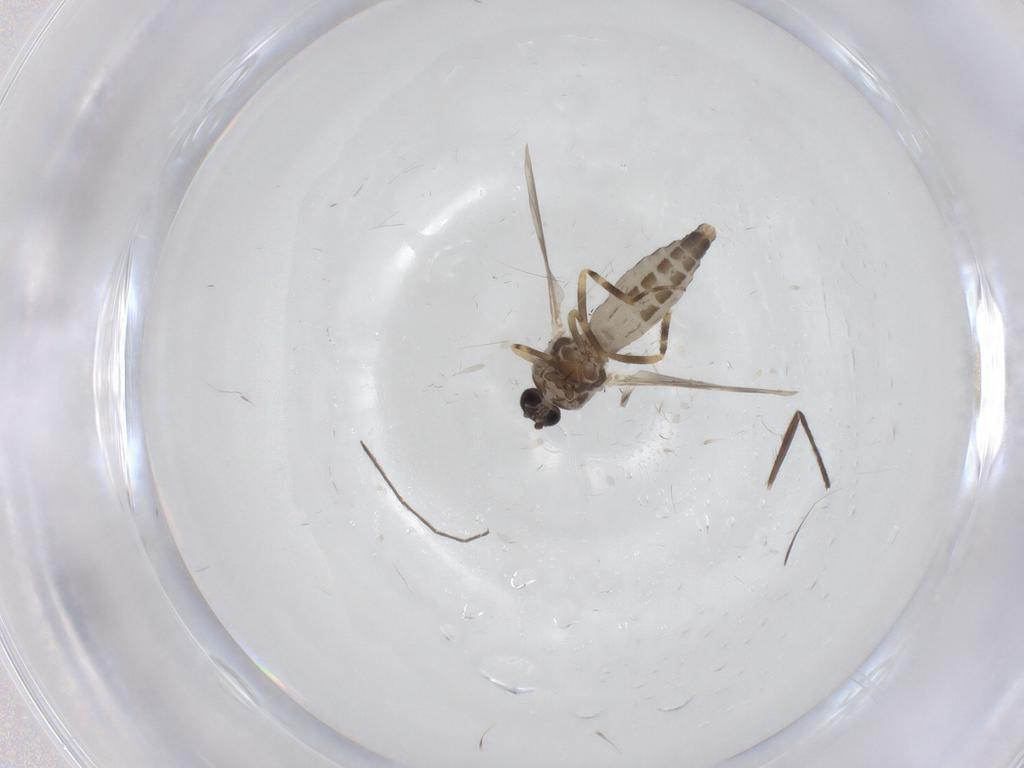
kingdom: Animalia
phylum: Arthropoda
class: Insecta
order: Diptera
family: Ceratopogonidae
